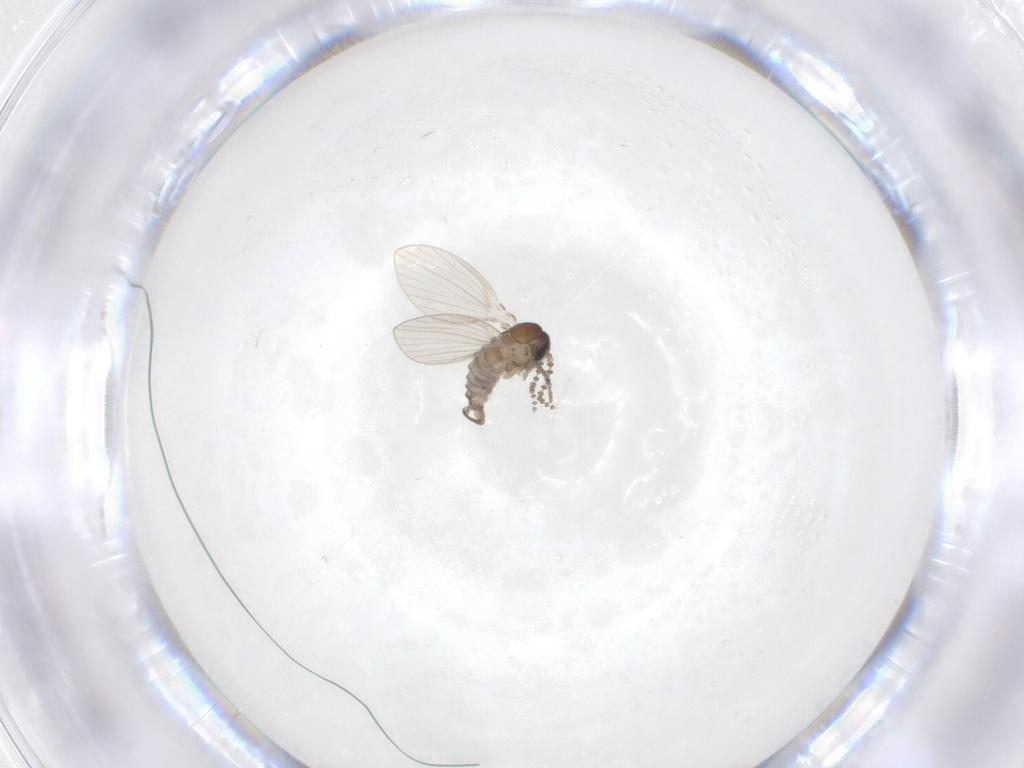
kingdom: Animalia
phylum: Arthropoda
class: Insecta
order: Diptera
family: Psychodidae
